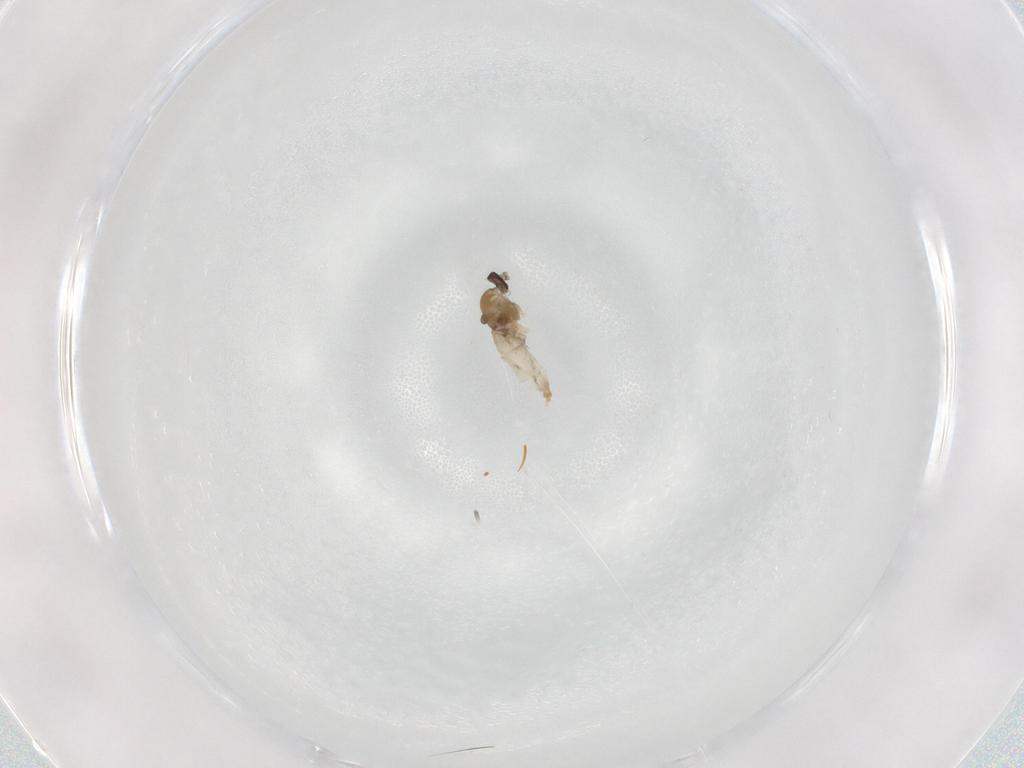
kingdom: Animalia
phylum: Arthropoda
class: Insecta
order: Diptera
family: Cecidomyiidae
